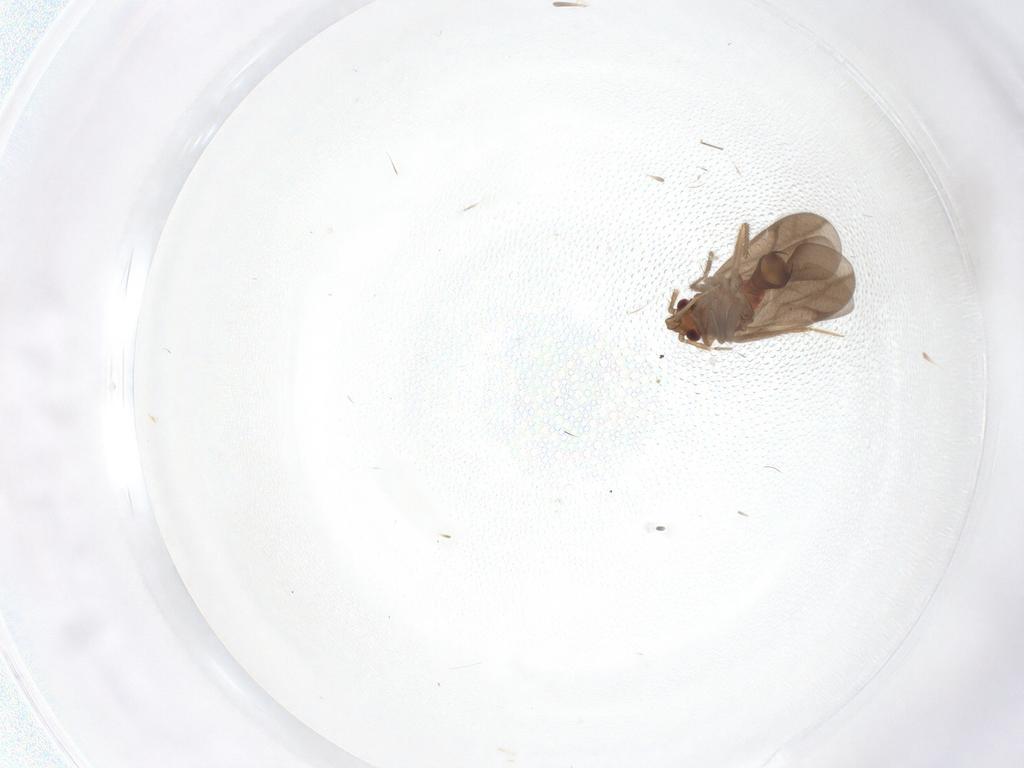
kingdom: Animalia
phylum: Arthropoda
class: Insecta
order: Hemiptera
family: Ceratocombidae
